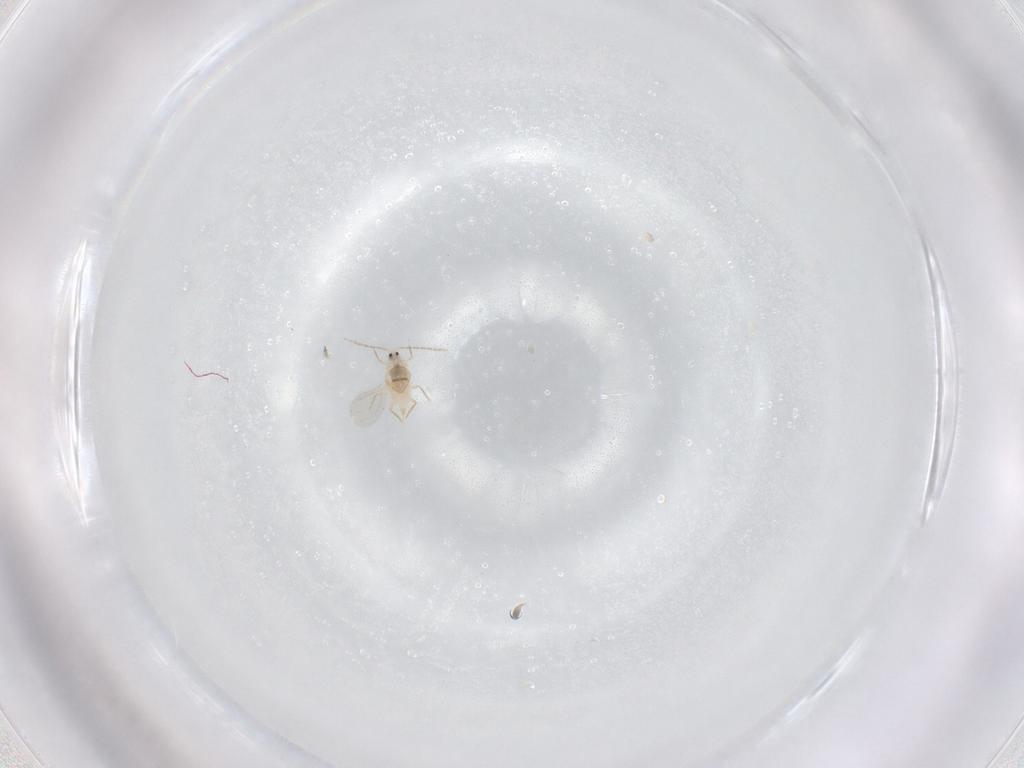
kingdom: Animalia
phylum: Arthropoda
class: Insecta
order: Hemiptera
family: Diaspididae
